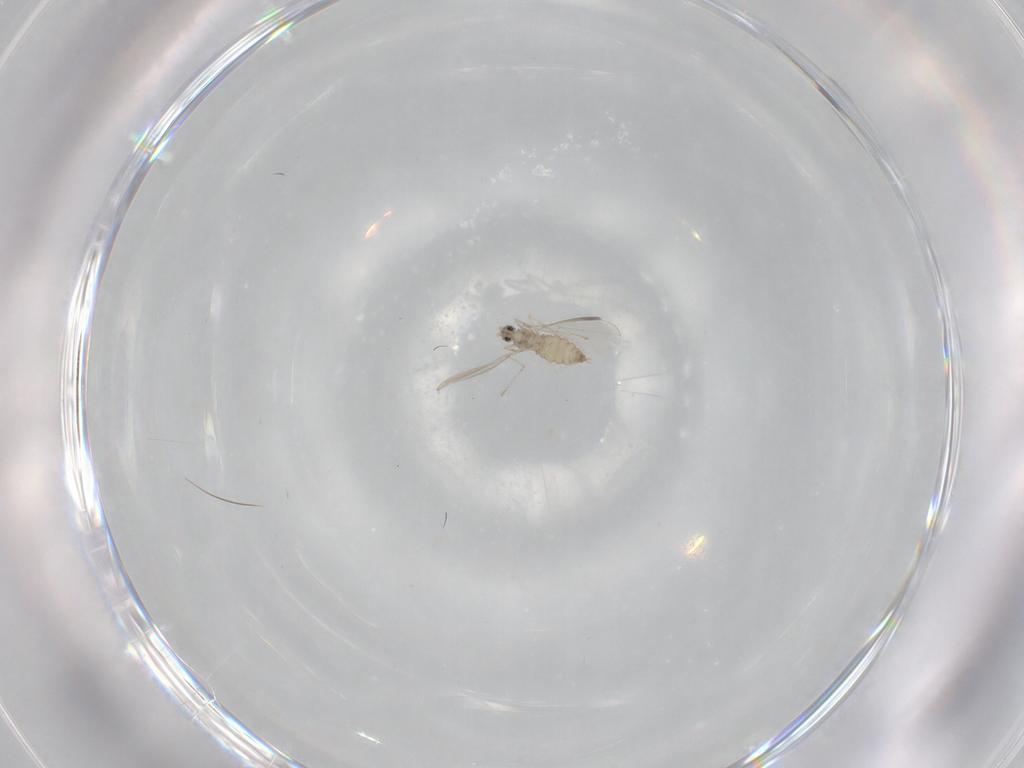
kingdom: Animalia
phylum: Arthropoda
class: Insecta
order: Diptera
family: Cecidomyiidae
